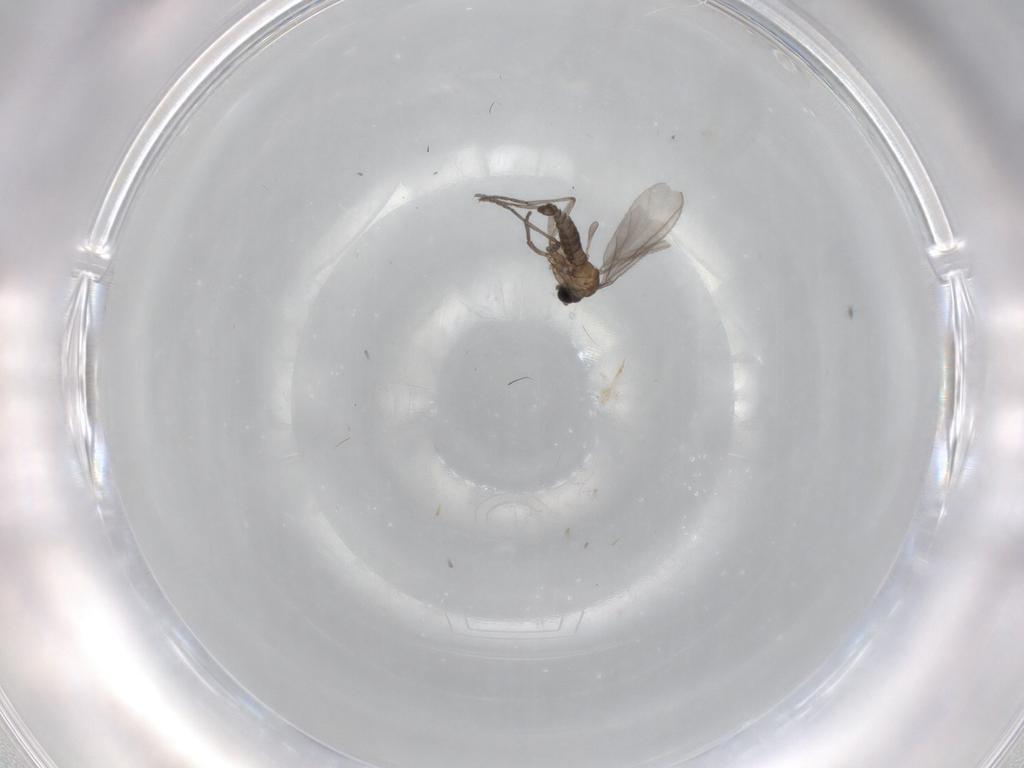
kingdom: Animalia
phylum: Arthropoda
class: Insecta
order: Diptera
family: Sciaridae
